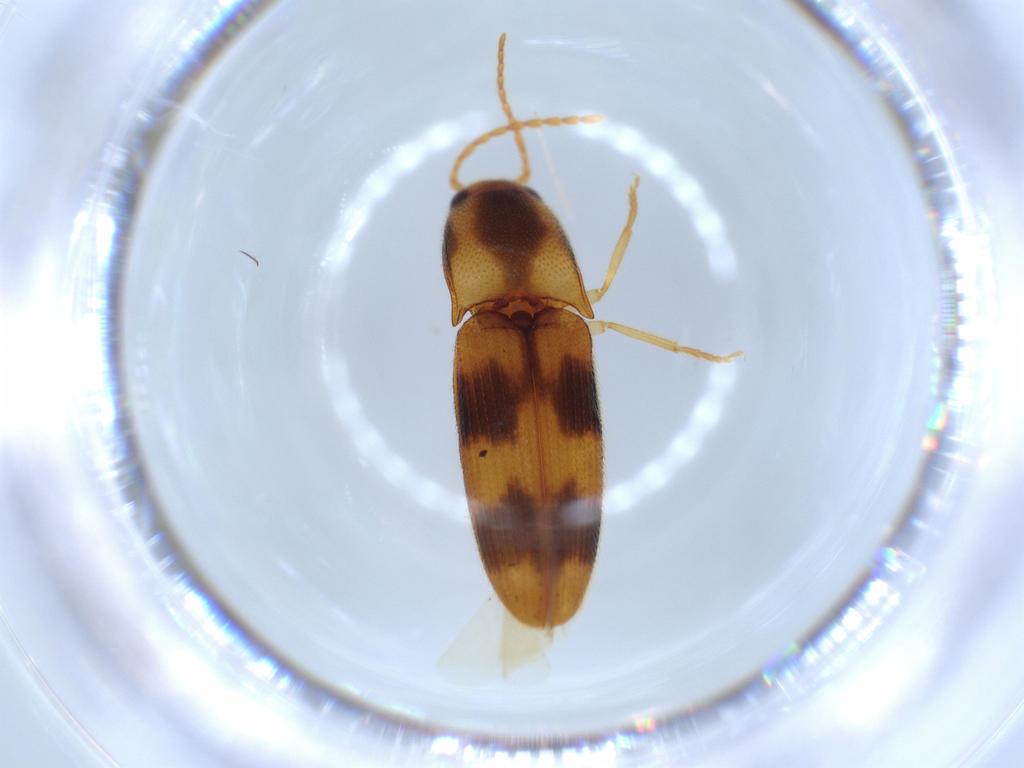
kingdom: Animalia
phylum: Arthropoda
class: Insecta
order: Coleoptera
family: Elateridae
